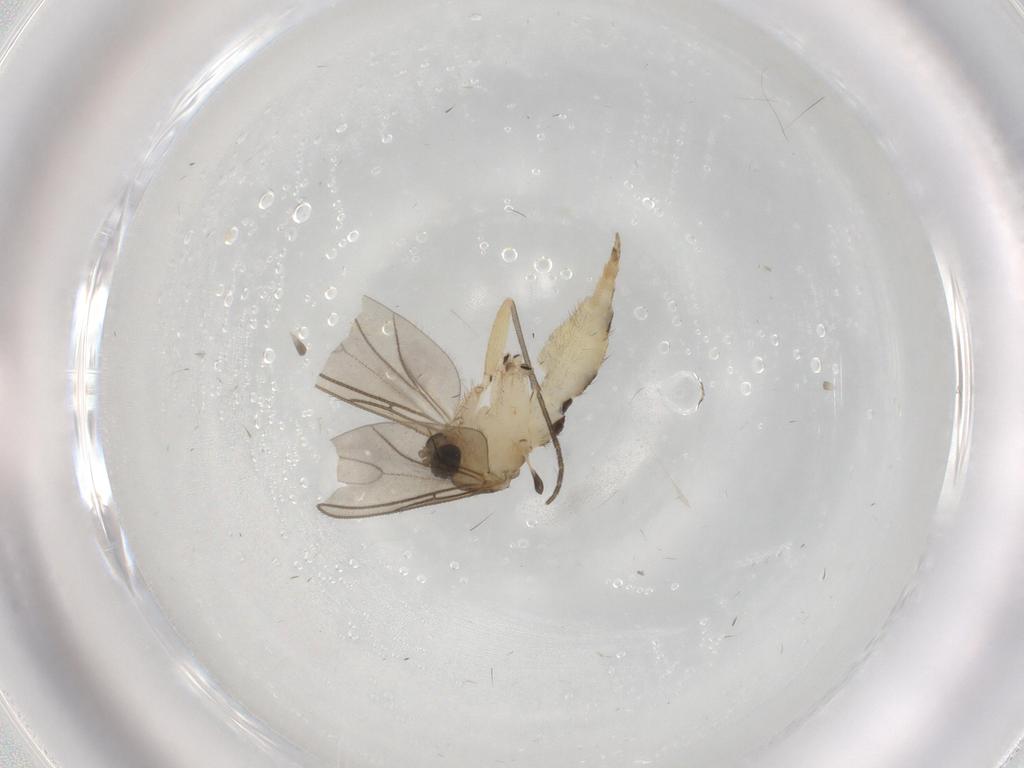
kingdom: Animalia
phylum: Arthropoda
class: Insecta
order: Diptera
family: Sciaridae
